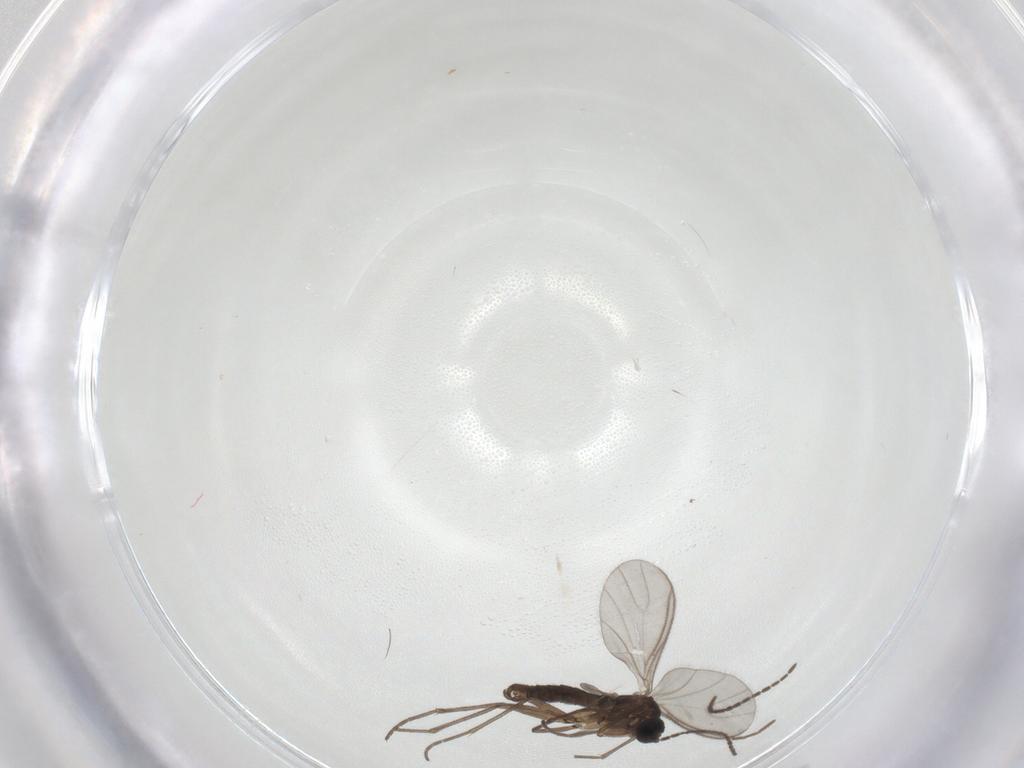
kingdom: Animalia
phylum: Arthropoda
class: Insecta
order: Diptera
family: Sciaridae
